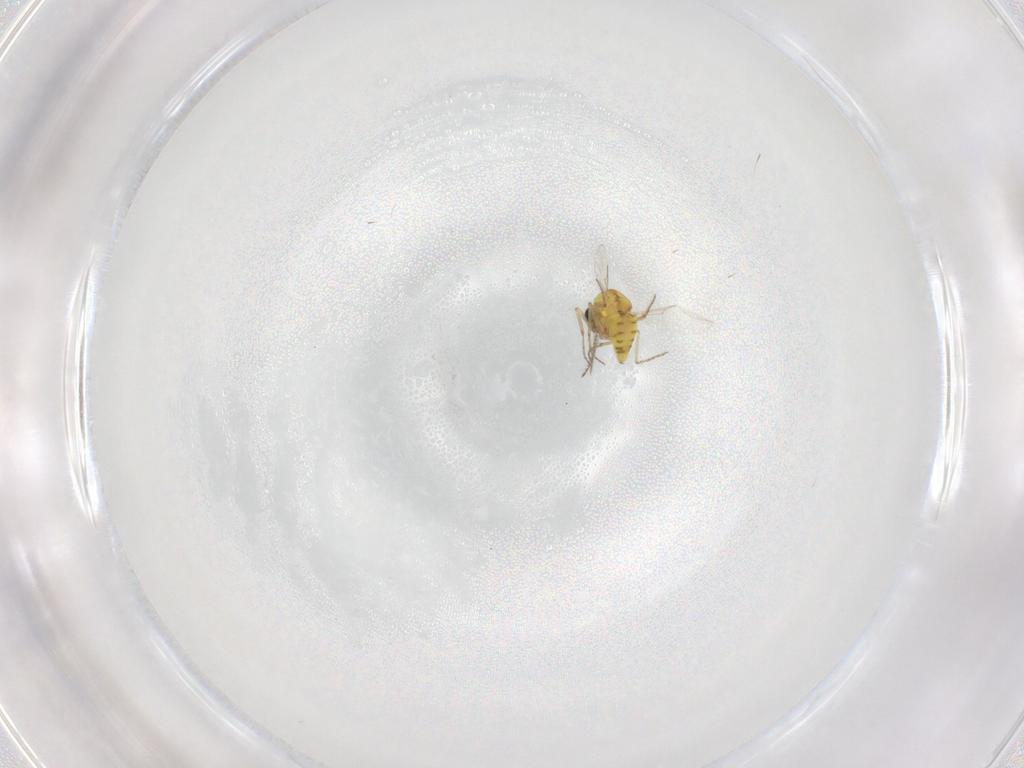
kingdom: Animalia
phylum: Arthropoda
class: Insecta
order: Diptera
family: Ceratopogonidae
